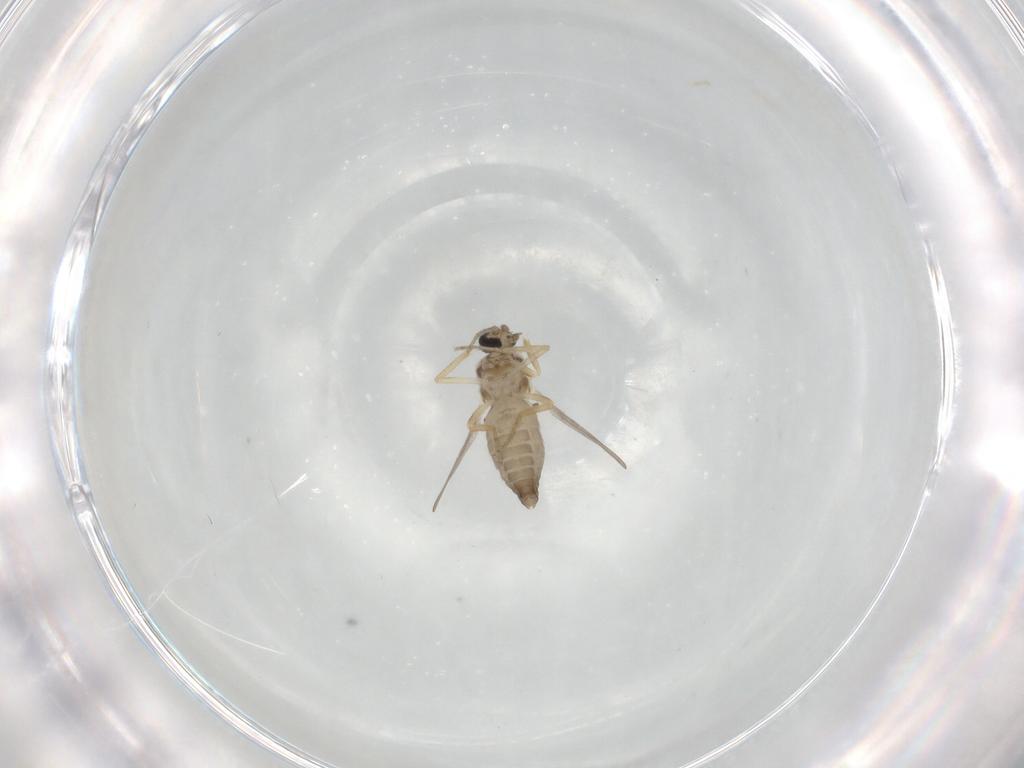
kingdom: Animalia
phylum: Arthropoda
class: Insecta
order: Diptera
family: Ceratopogonidae
